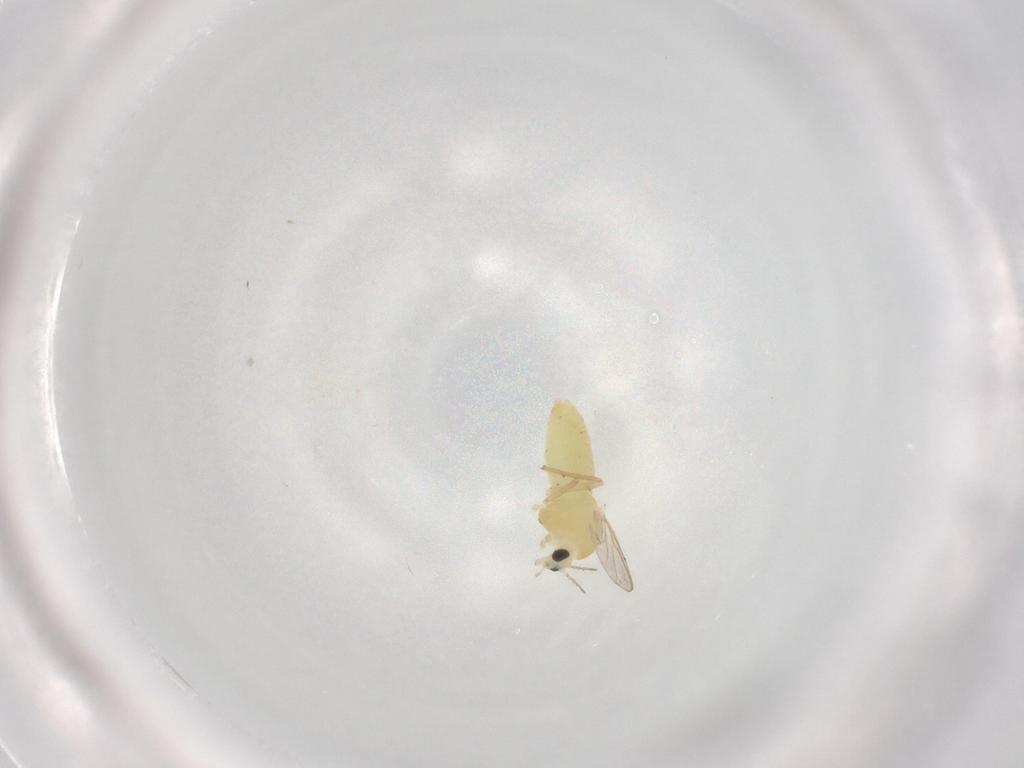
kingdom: Animalia
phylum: Arthropoda
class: Insecta
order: Diptera
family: Chironomidae
